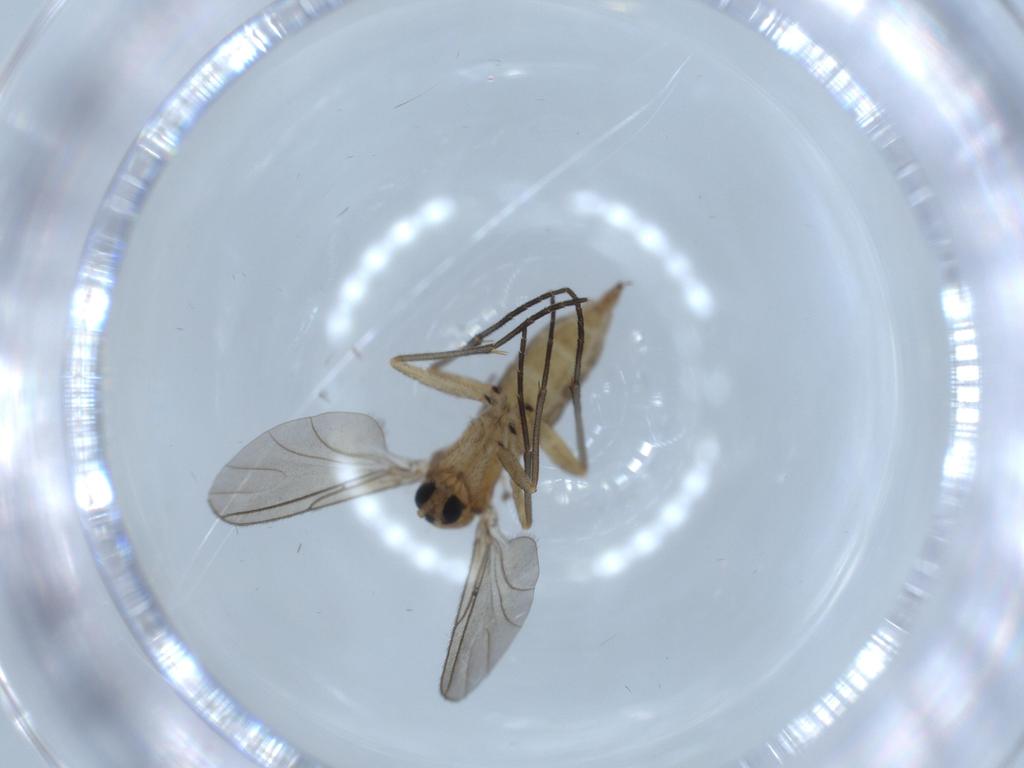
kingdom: Animalia
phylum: Arthropoda
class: Insecta
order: Diptera
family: Sciaridae
